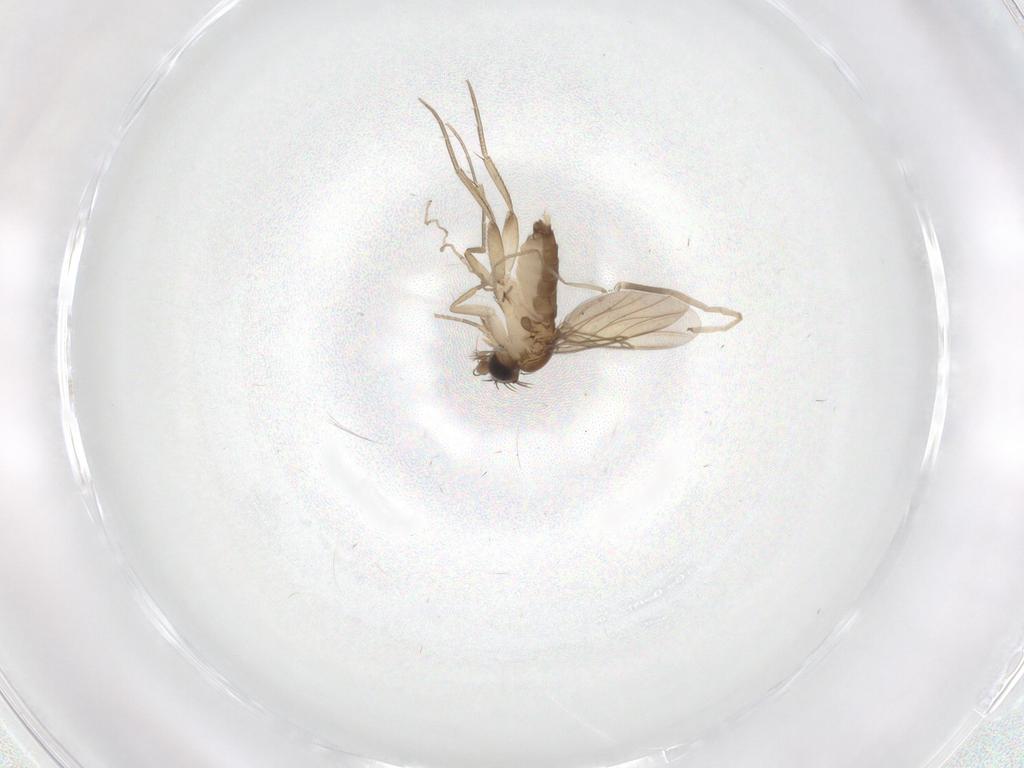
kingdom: Animalia
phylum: Arthropoda
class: Insecta
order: Diptera
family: Phoridae
